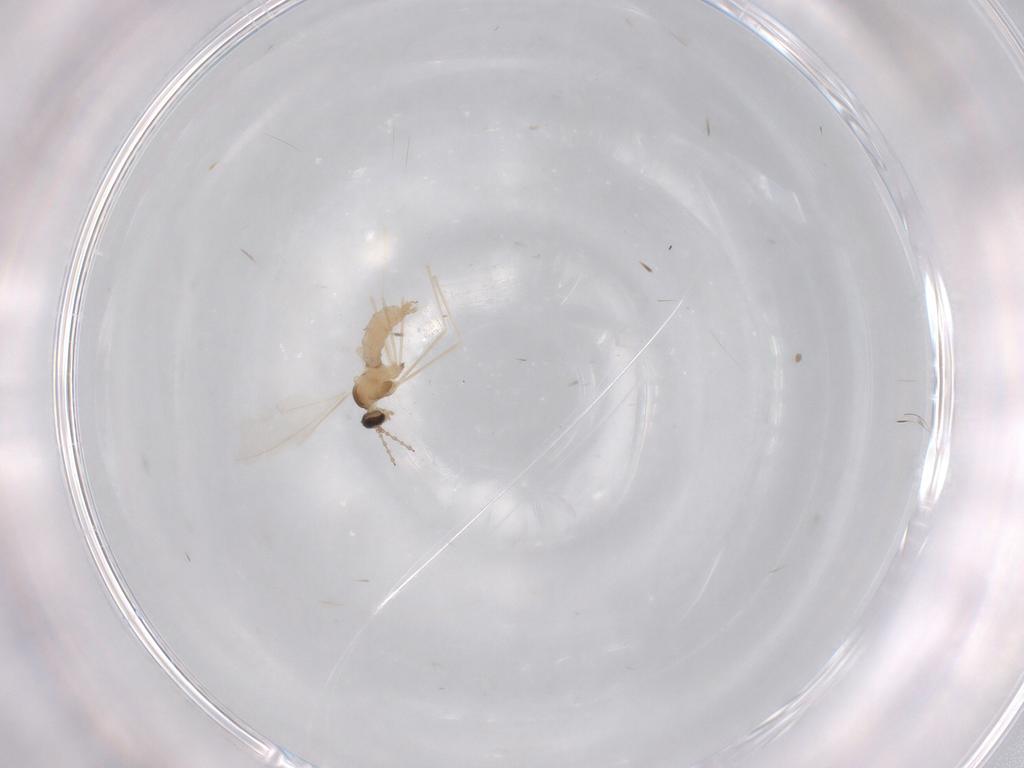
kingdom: Animalia
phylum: Arthropoda
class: Insecta
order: Diptera
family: Cecidomyiidae
